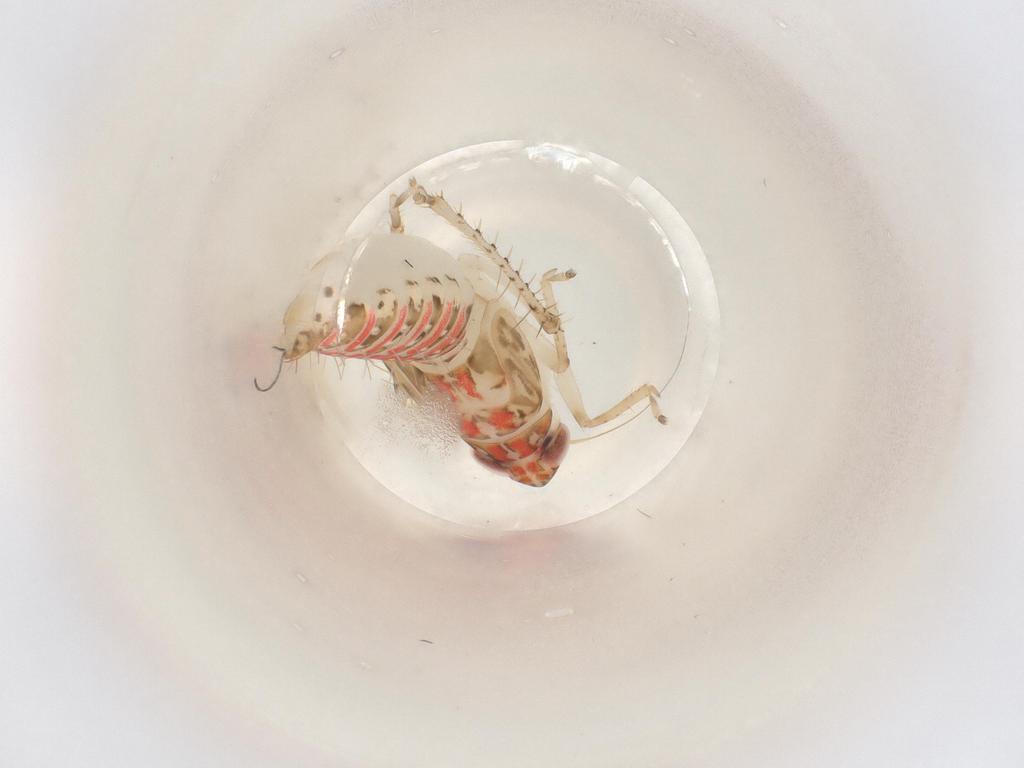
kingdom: Animalia
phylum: Arthropoda
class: Insecta
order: Hemiptera
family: Cicadellidae
